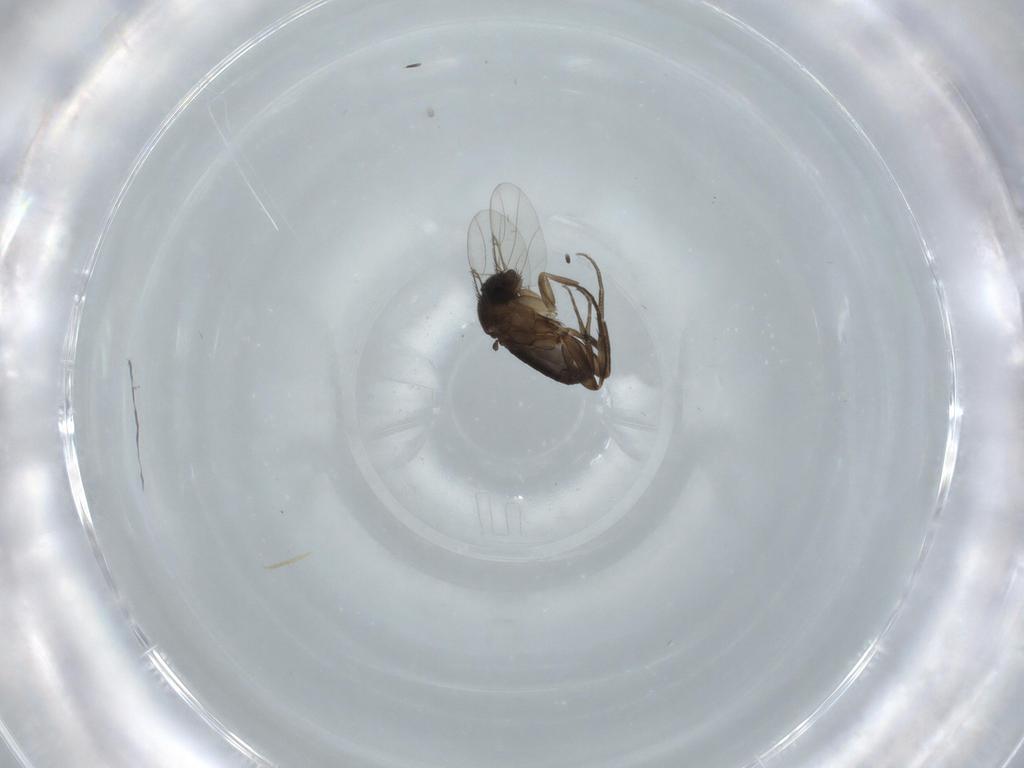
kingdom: Animalia
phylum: Arthropoda
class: Insecta
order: Diptera
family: Phoridae
